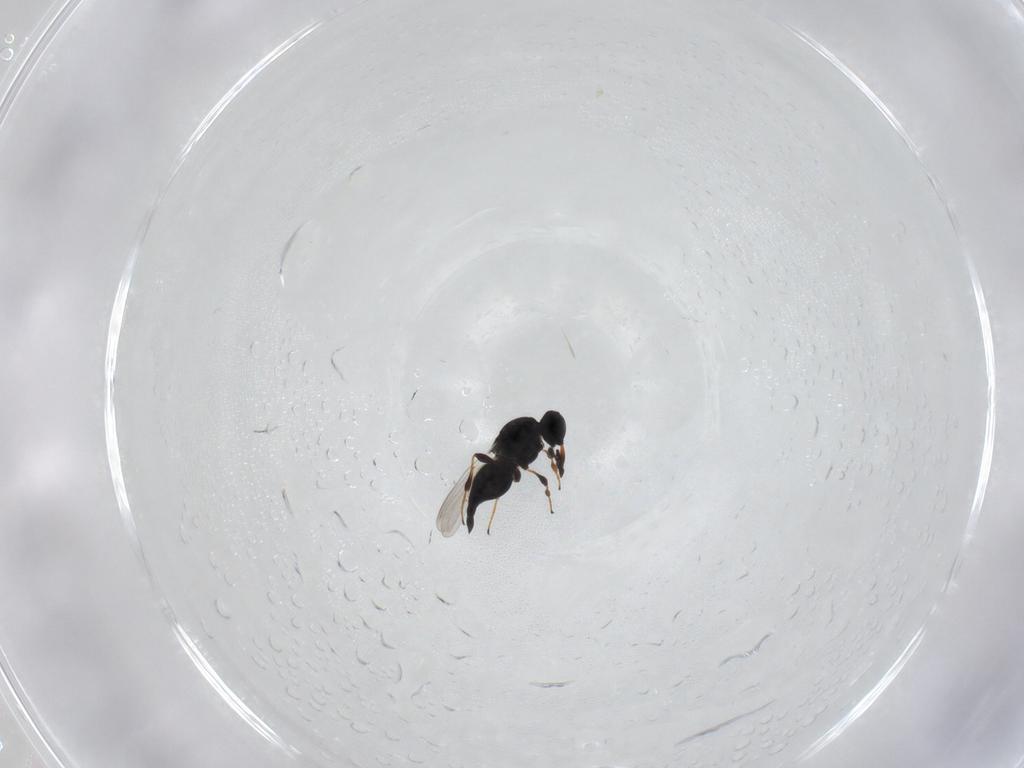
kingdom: Animalia
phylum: Arthropoda
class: Insecta
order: Hymenoptera
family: Platygastridae
